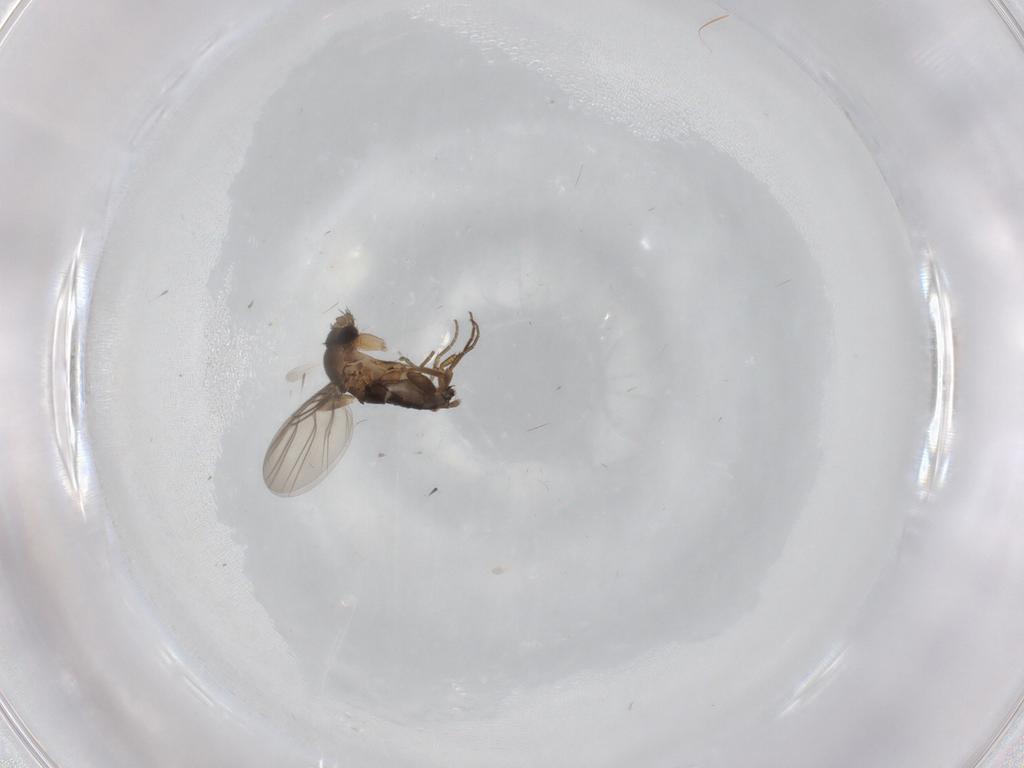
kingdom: Animalia
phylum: Arthropoda
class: Insecta
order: Diptera
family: Phoridae
